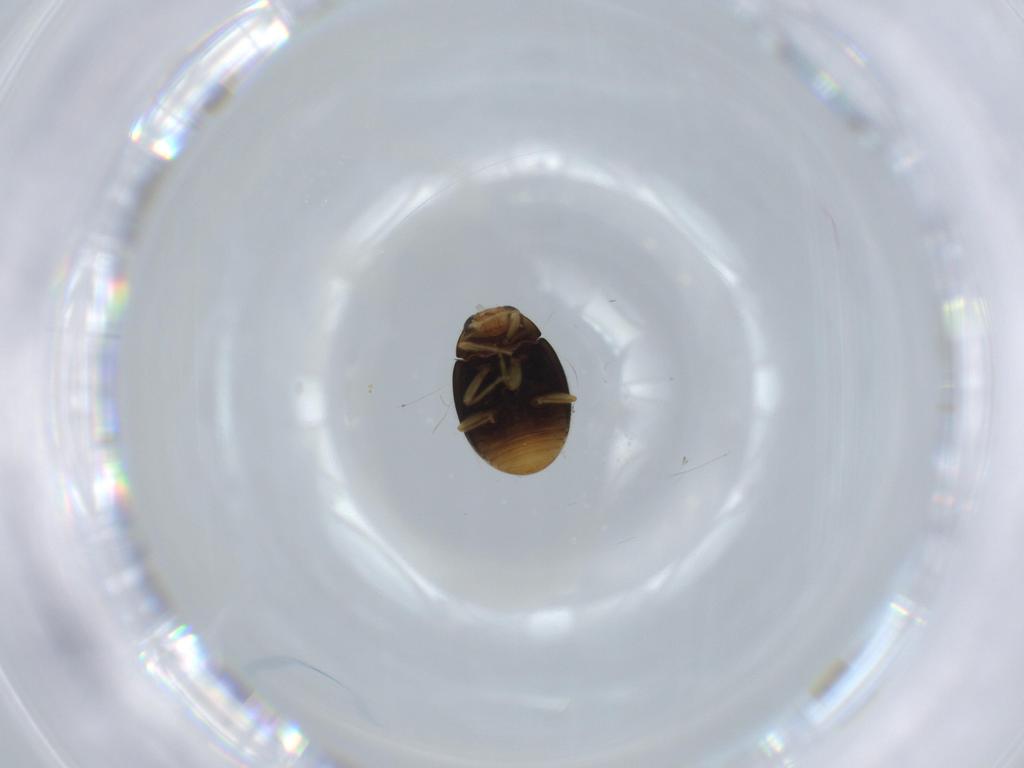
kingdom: Animalia
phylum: Arthropoda
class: Insecta
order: Coleoptera
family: Coccinellidae
